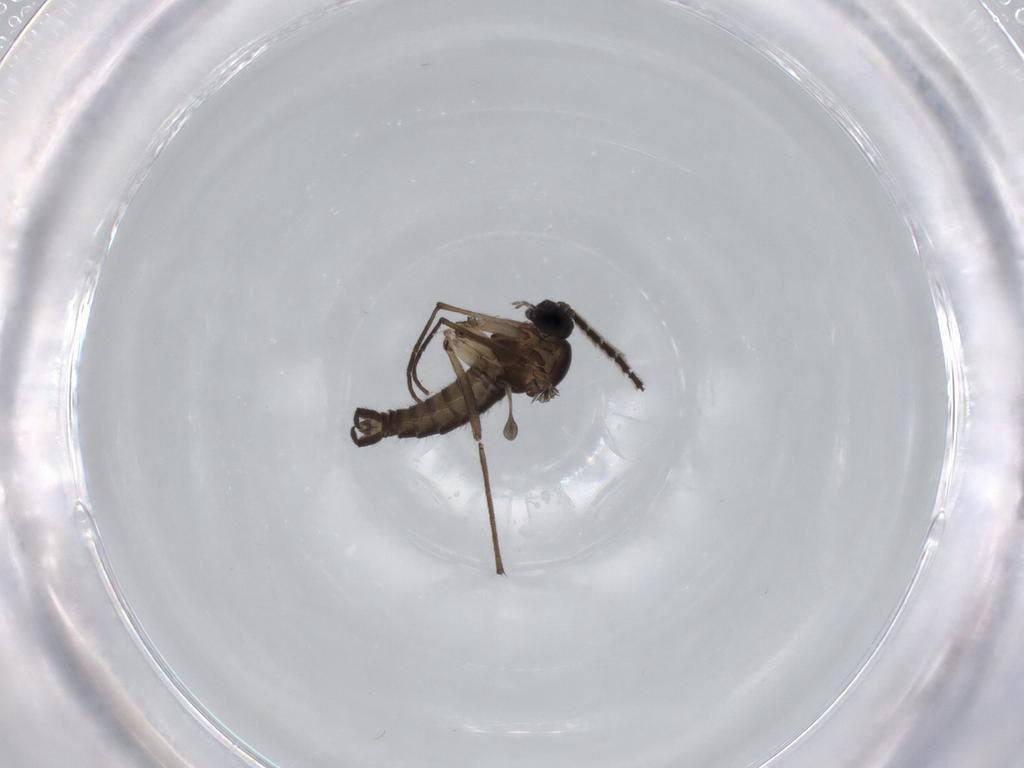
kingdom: Animalia
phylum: Arthropoda
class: Insecta
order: Diptera
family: Sciaridae
